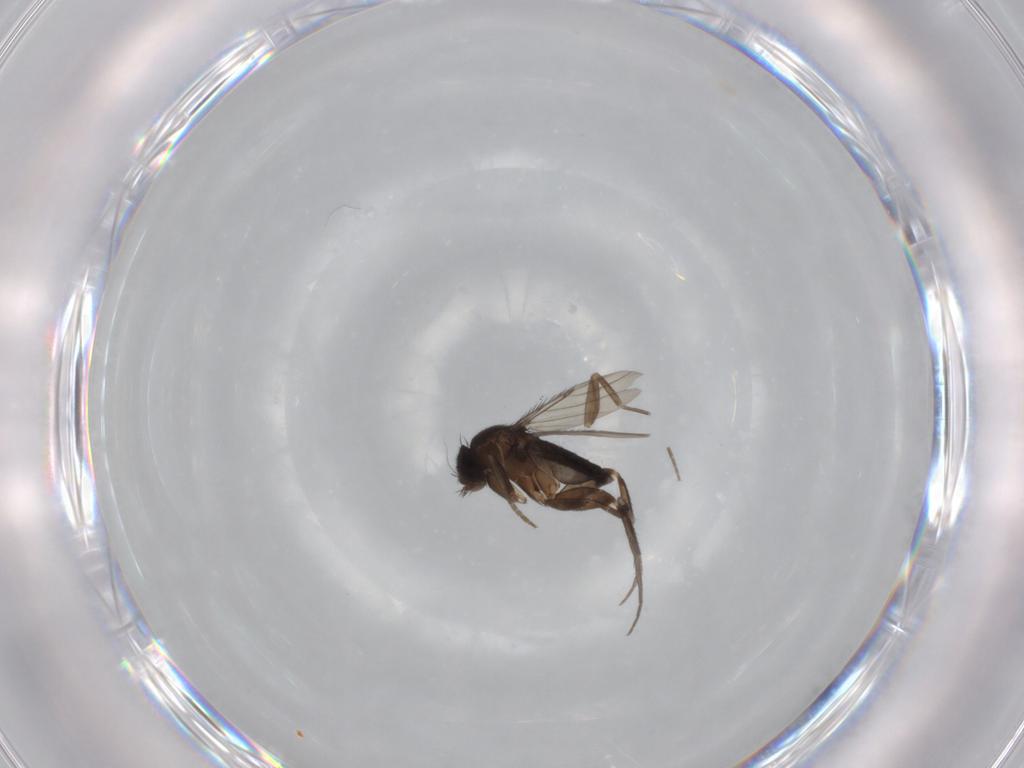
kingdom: Animalia
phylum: Arthropoda
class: Insecta
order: Diptera
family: Phoridae
